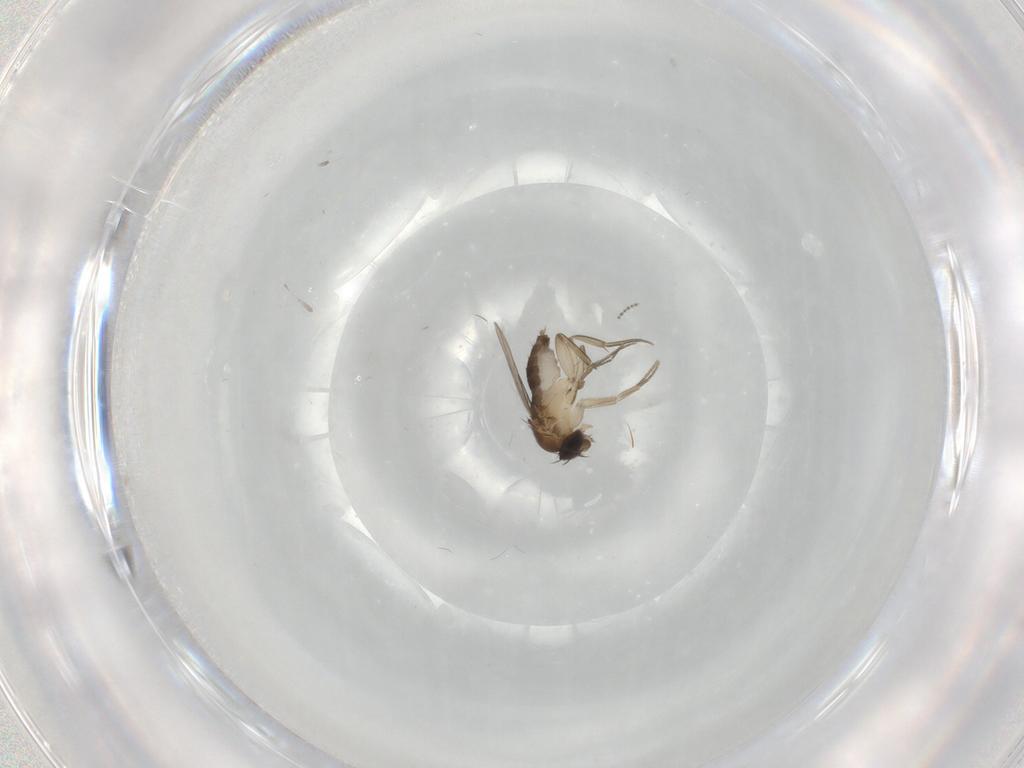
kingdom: Animalia
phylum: Arthropoda
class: Insecta
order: Diptera
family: Phoridae
